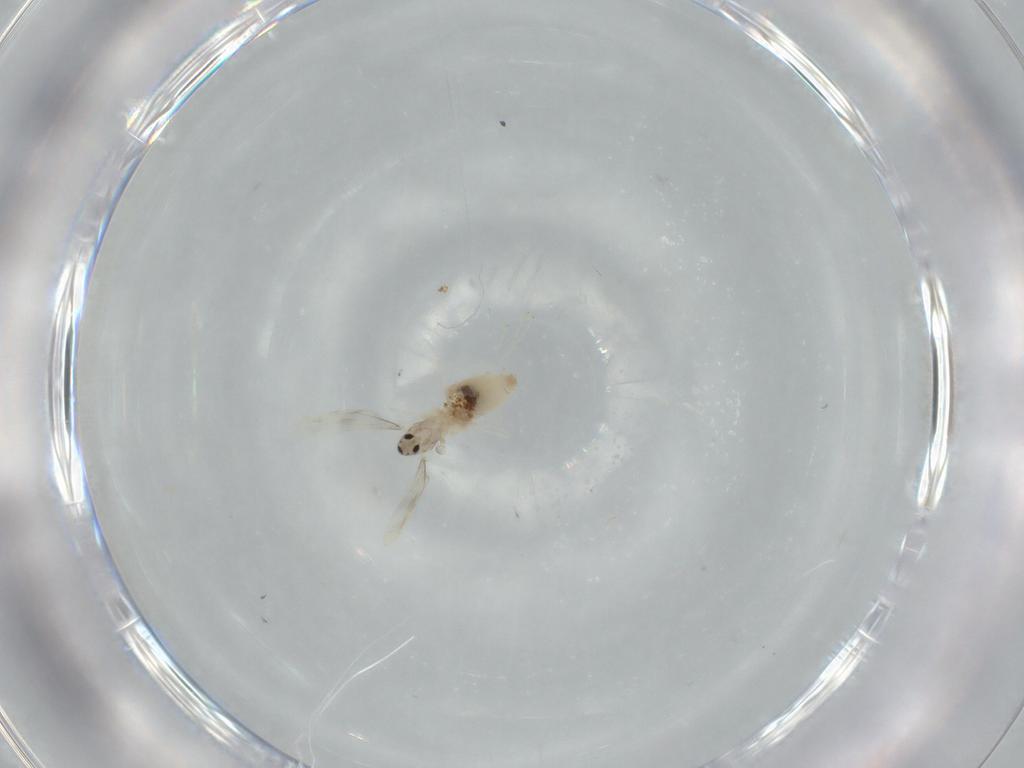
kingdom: Animalia
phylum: Arthropoda
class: Insecta
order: Diptera
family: Cecidomyiidae
